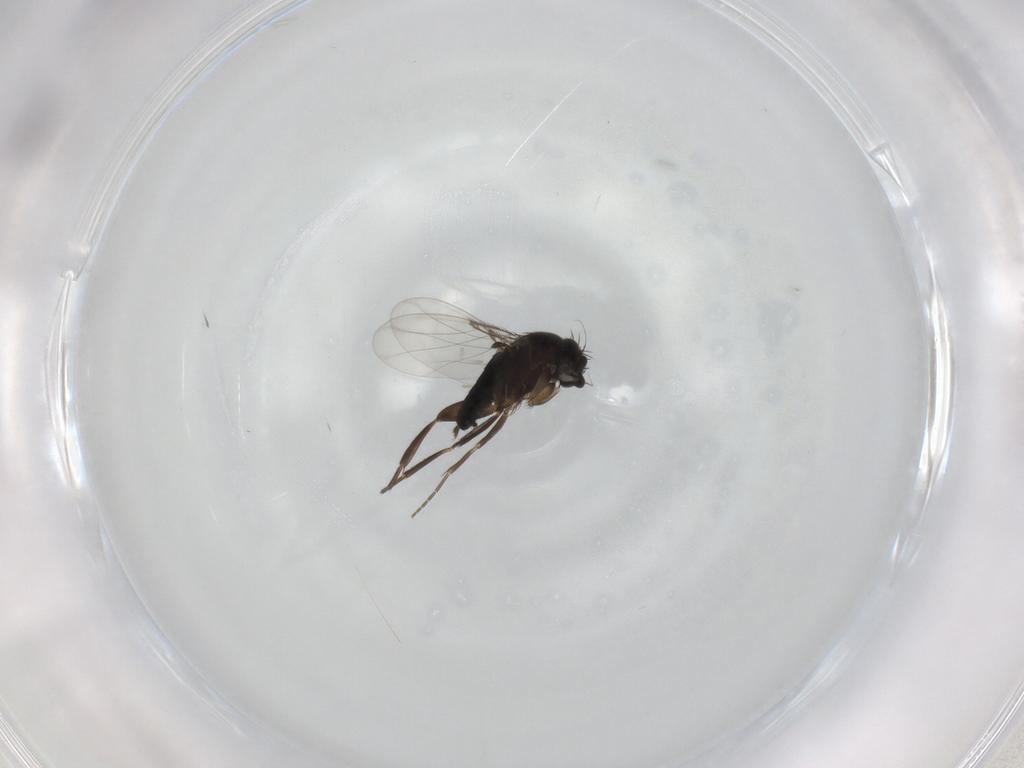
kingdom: Animalia
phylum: Arthropoda
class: Insecta
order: Diptera
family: Phoridae
